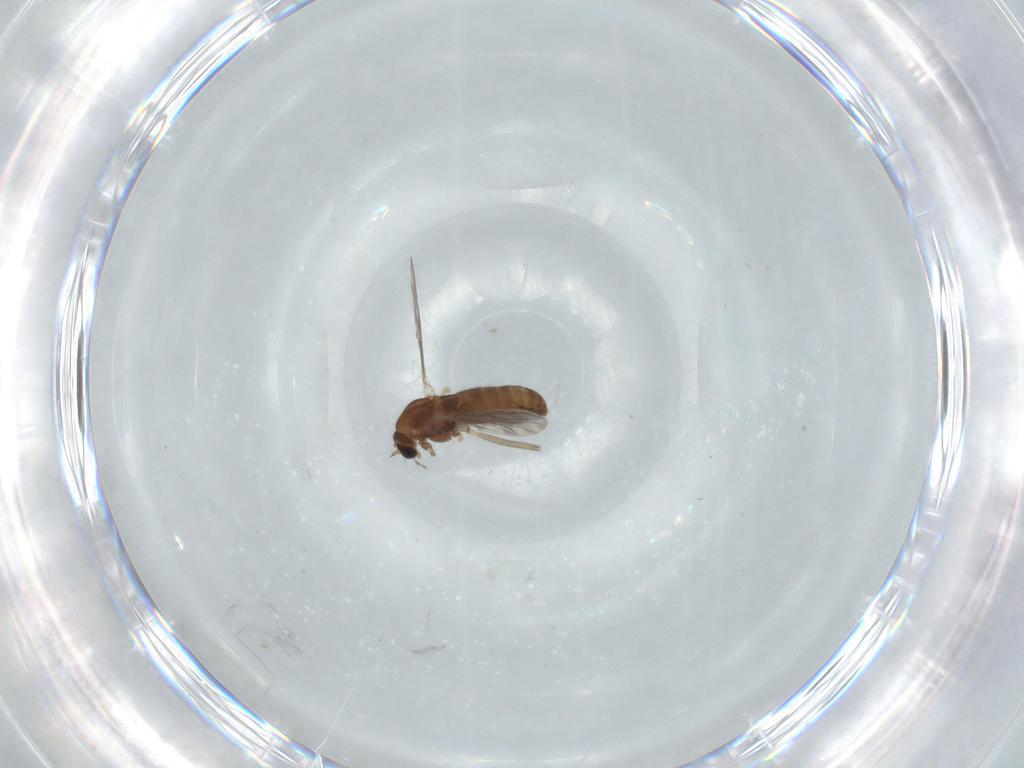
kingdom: Animalia
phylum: Arthropoda
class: Insecta
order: Diptera
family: Chironomidae
